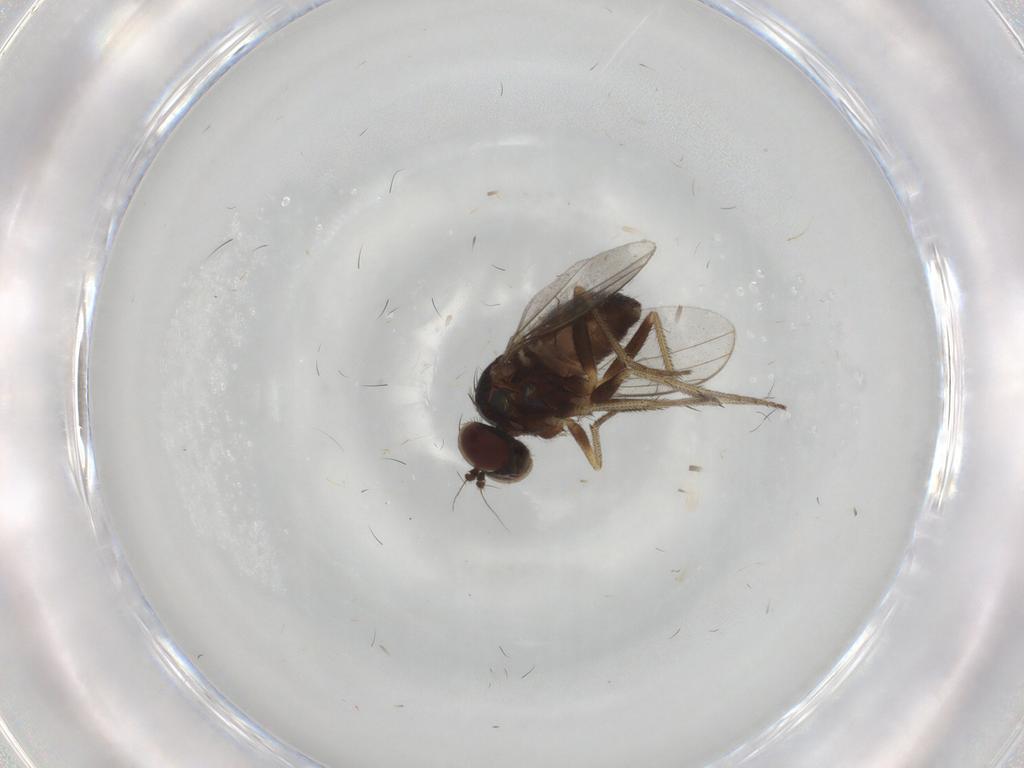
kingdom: Animalia
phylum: Arthropoda
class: Insecta
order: Diptera
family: Dolichopodidae
